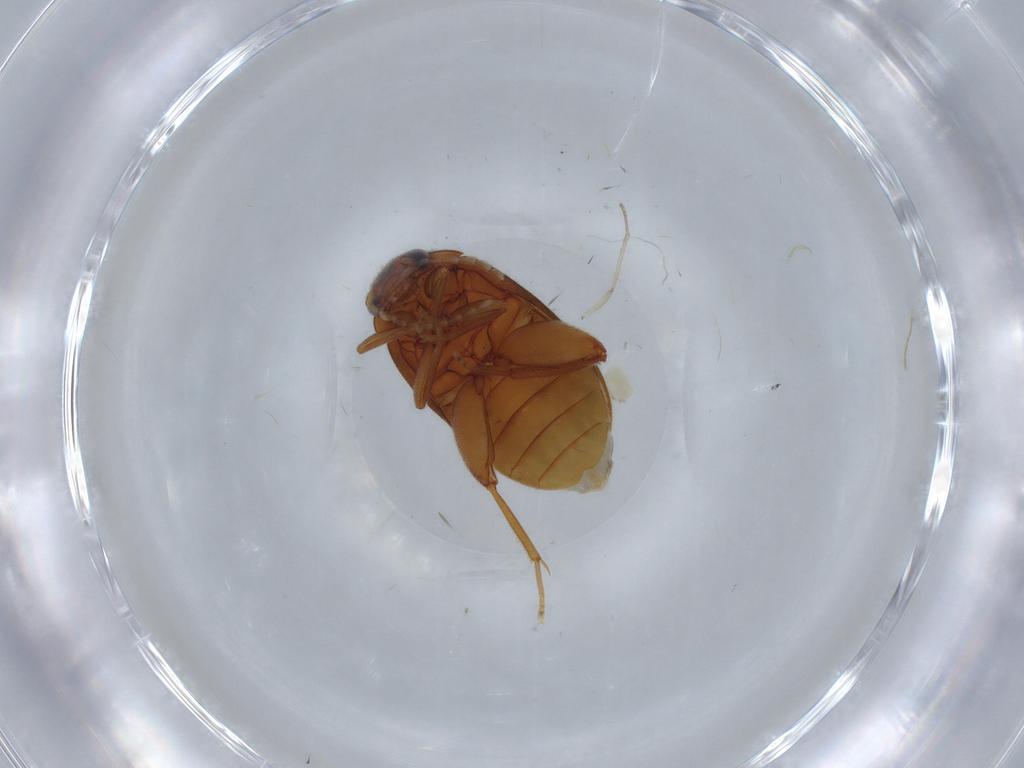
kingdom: Animalia
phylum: Arthropoda
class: Insecta
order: Coleoptera
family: Ptilodactylidae
